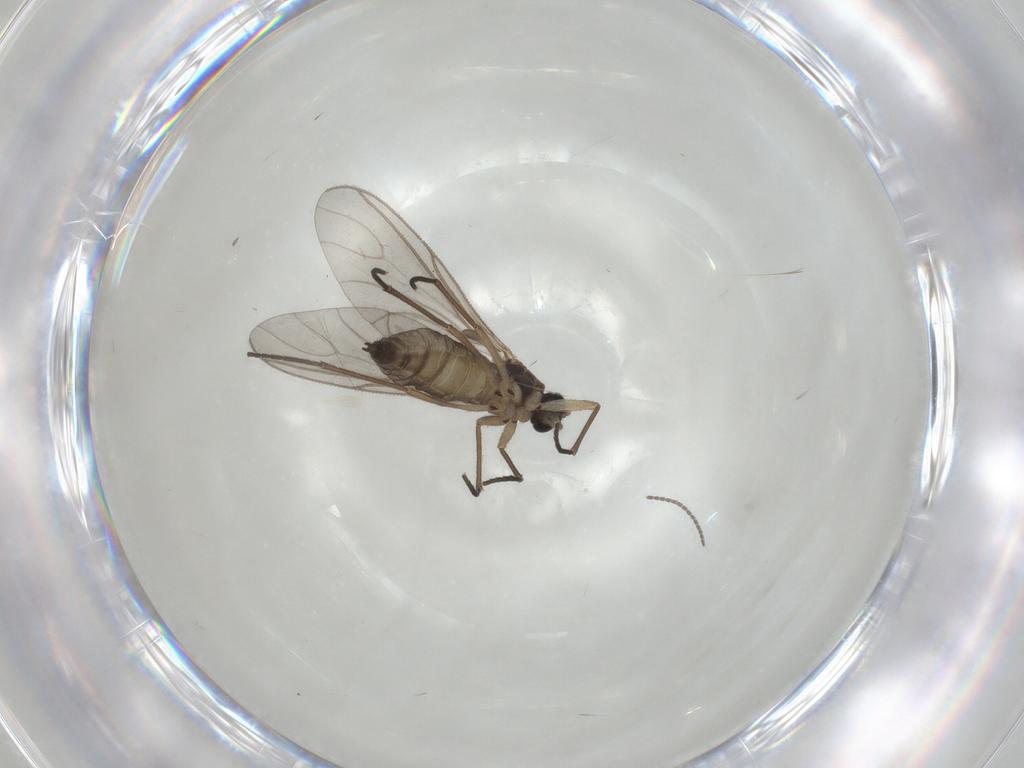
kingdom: Animalia
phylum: Arthropoda
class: Insecta
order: Diptera
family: Sciaridae
